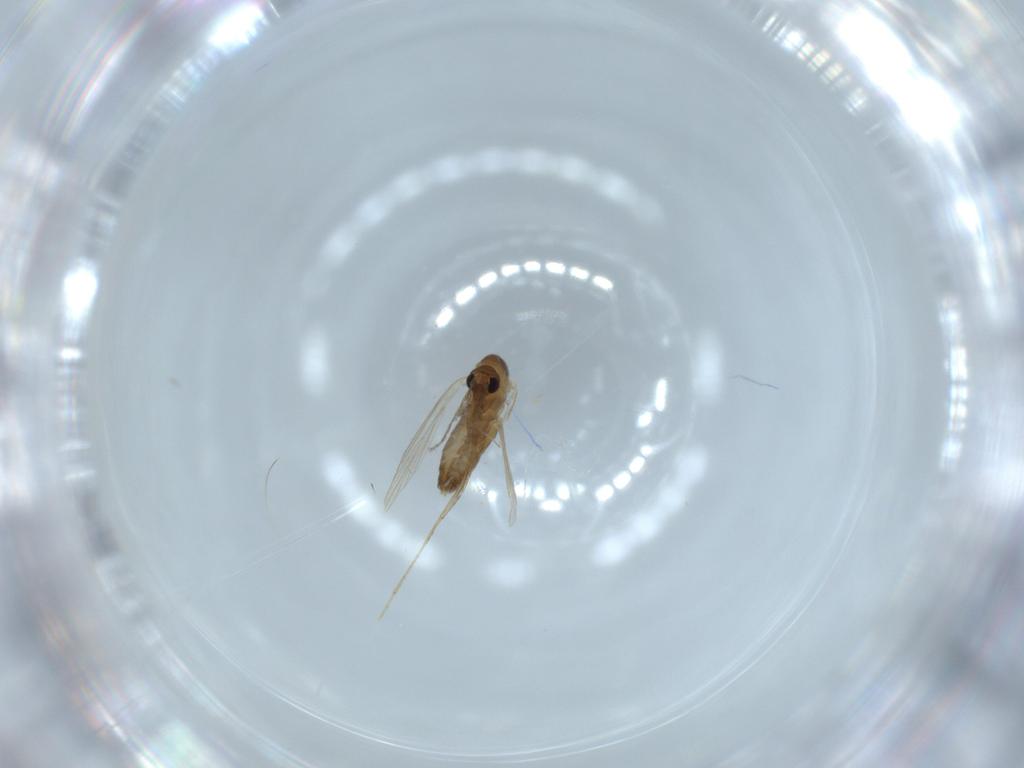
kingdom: Animalia
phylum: Arthropoda
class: Insecta
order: Diptera
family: Psychodidae
